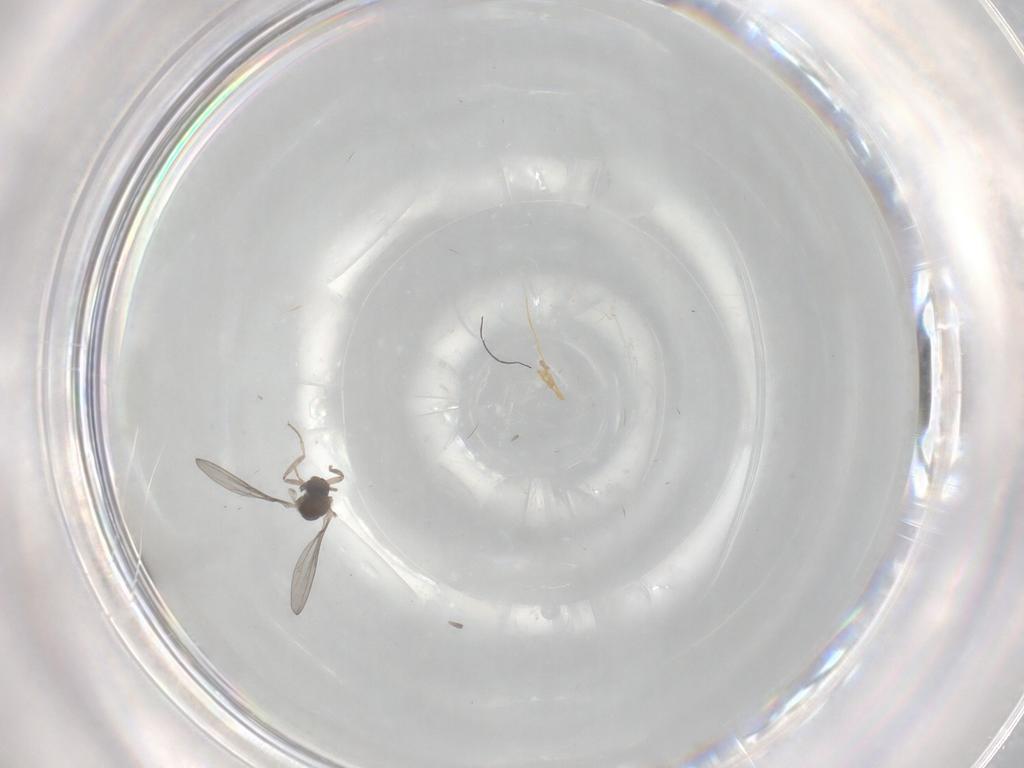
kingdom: Animalia
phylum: Arthropoda
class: Insecta
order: Diptera
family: Cecidomyiidae
